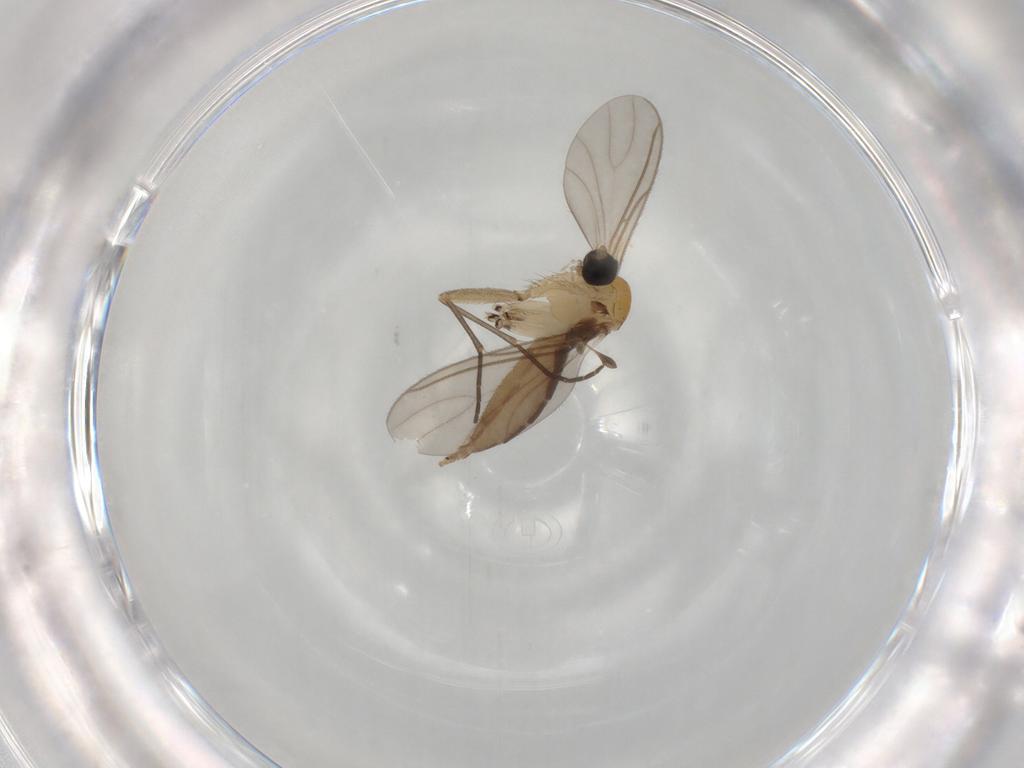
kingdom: Animalia
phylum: Arthropoda
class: Insecta
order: Diptera
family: Sciaridae
